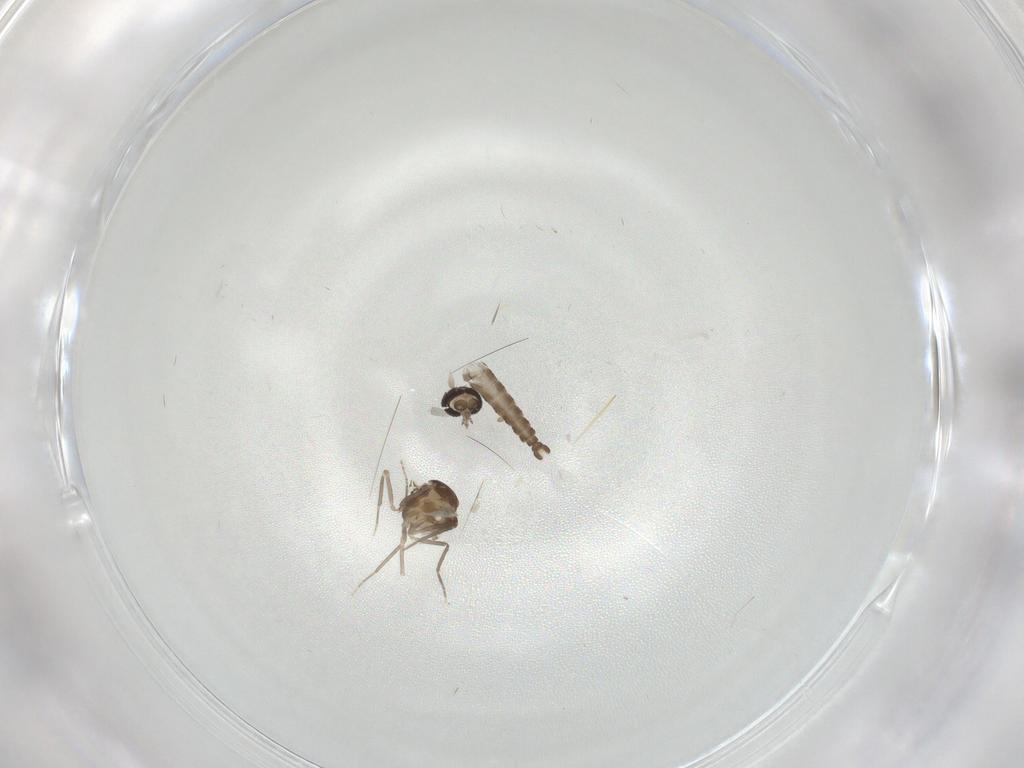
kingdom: Animalia
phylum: Arthropoda
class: Insecta
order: Diptera
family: Ceratopogonidae
